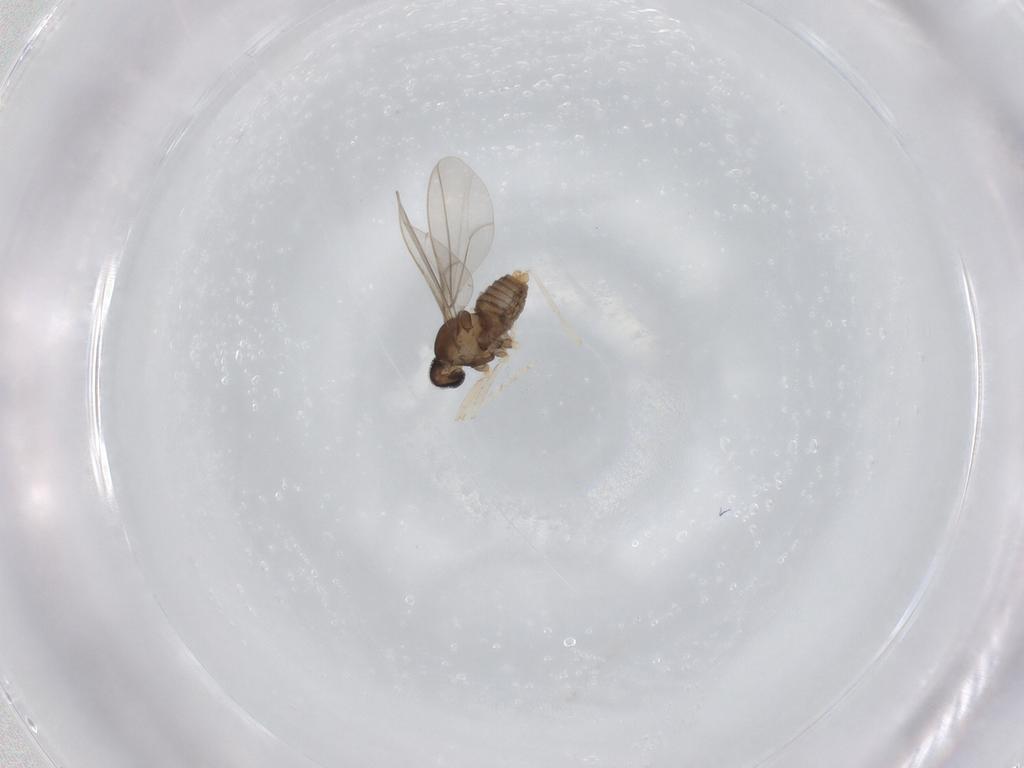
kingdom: Animalia
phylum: Arthropoda
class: Insecta
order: Diptera
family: Cecidomyiidae
